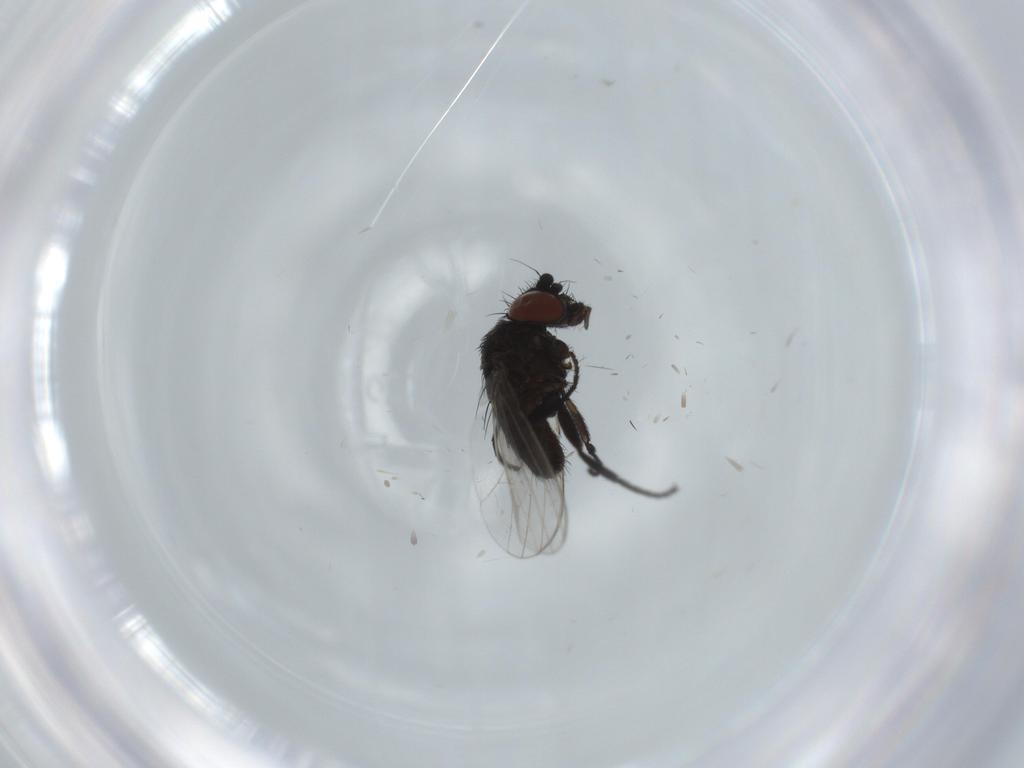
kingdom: Animalia
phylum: Arthropoda
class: Insecta
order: Diptera
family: Milichiidae
